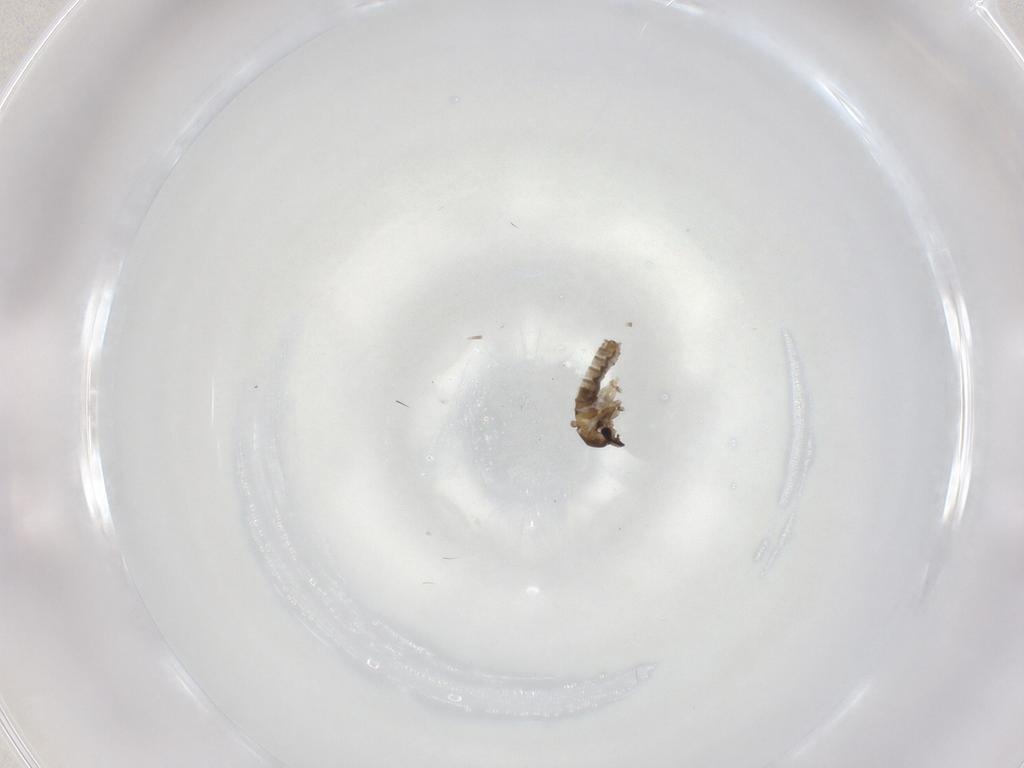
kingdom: Animalia
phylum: Arthropoda
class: Insecta
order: Diptera
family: Cecidomyiidae
